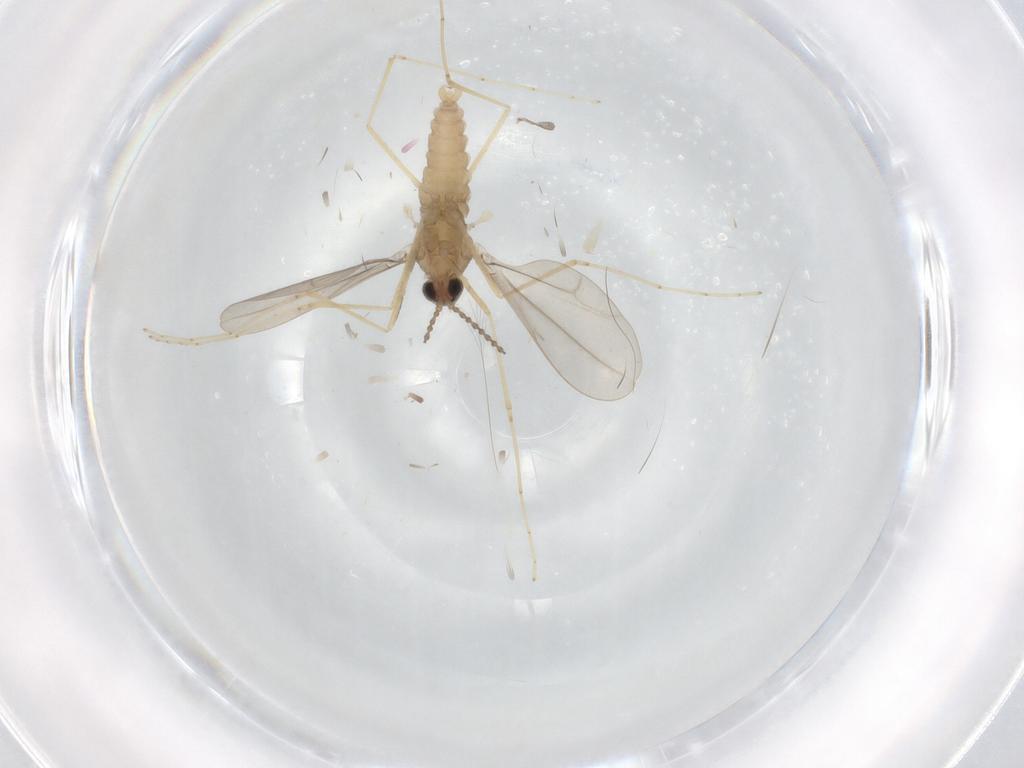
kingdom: Animalia
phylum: Arthropoda
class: Insecta
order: Diptera
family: Cecidomyiidae
